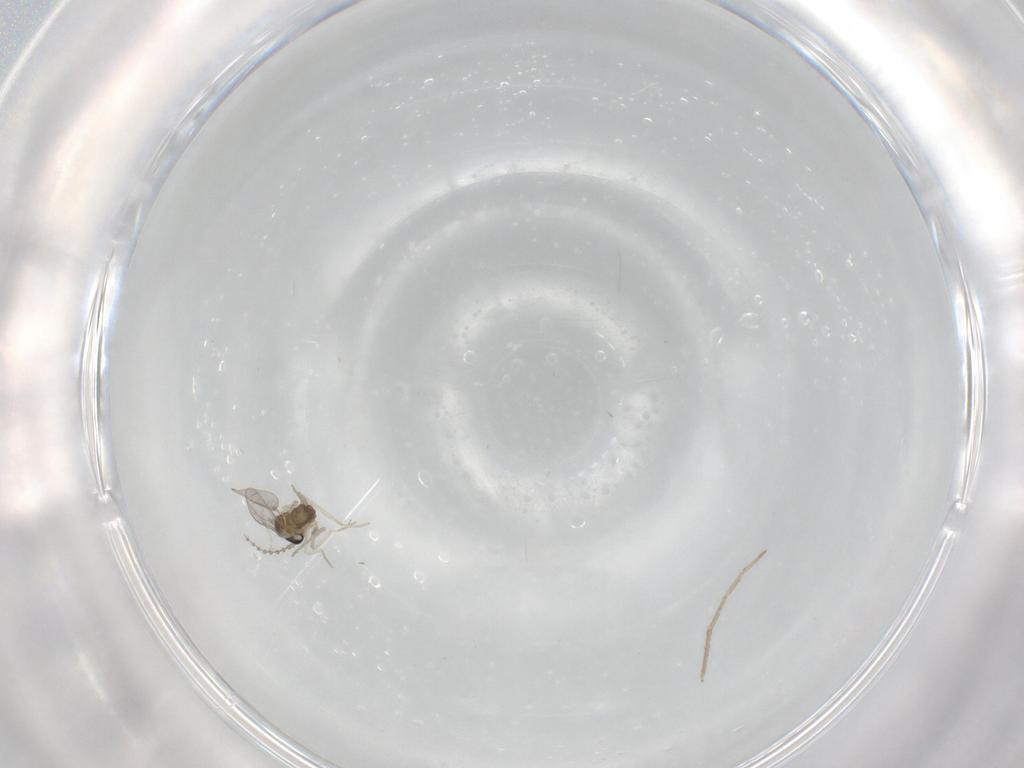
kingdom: Animalia
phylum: Arthropoda
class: Insecta
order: Diptera
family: Cecidomyiidae
